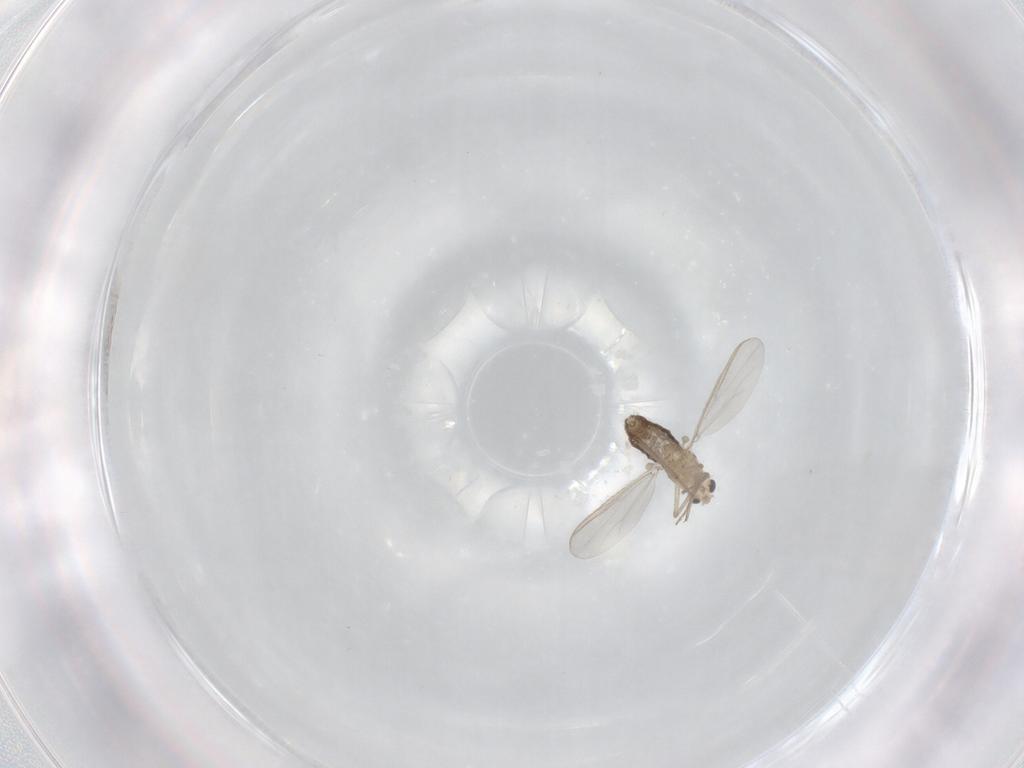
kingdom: Animalia
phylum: Arthropoda
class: Insecta
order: Diptera
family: Chironomidae
